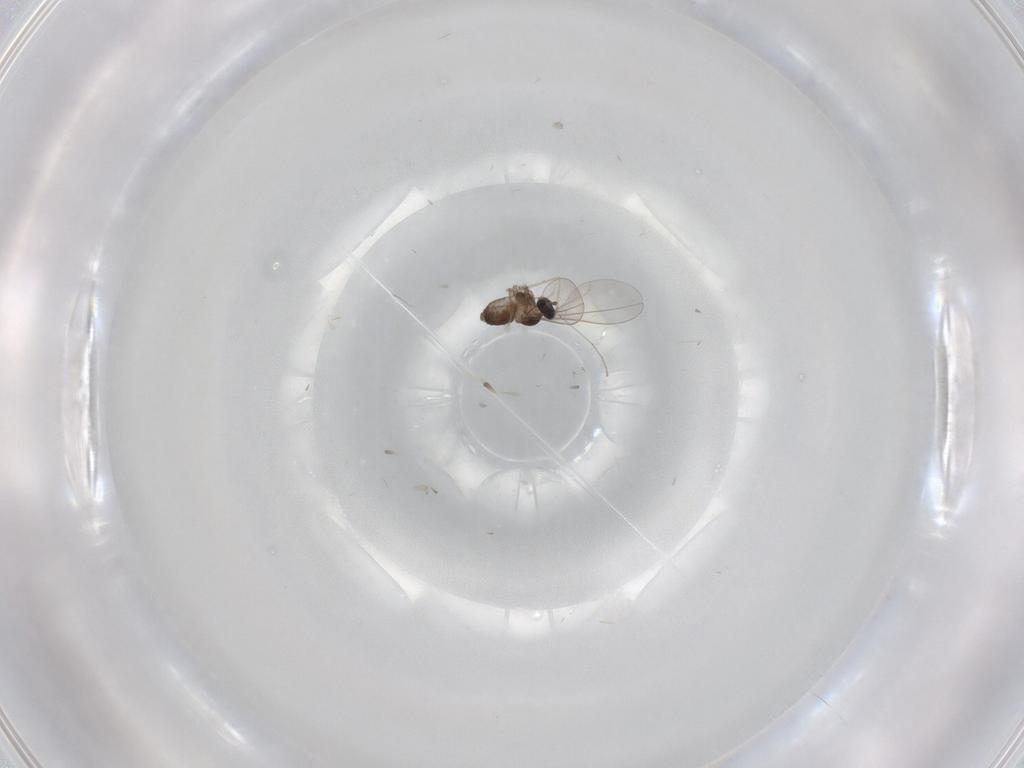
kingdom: Animalia
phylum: Arthropoda
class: Insecta
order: Diptera
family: Cecidomyiidae
